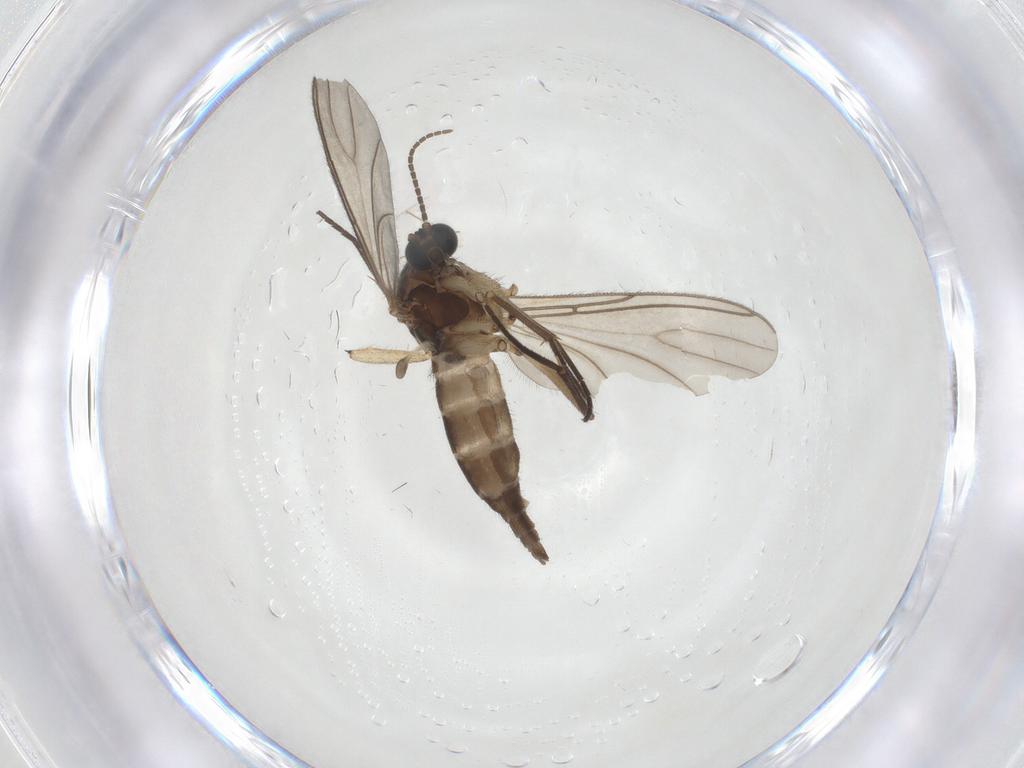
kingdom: Animalia
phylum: Arthropoda
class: Insecta
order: Diptera
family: Sciaridae
